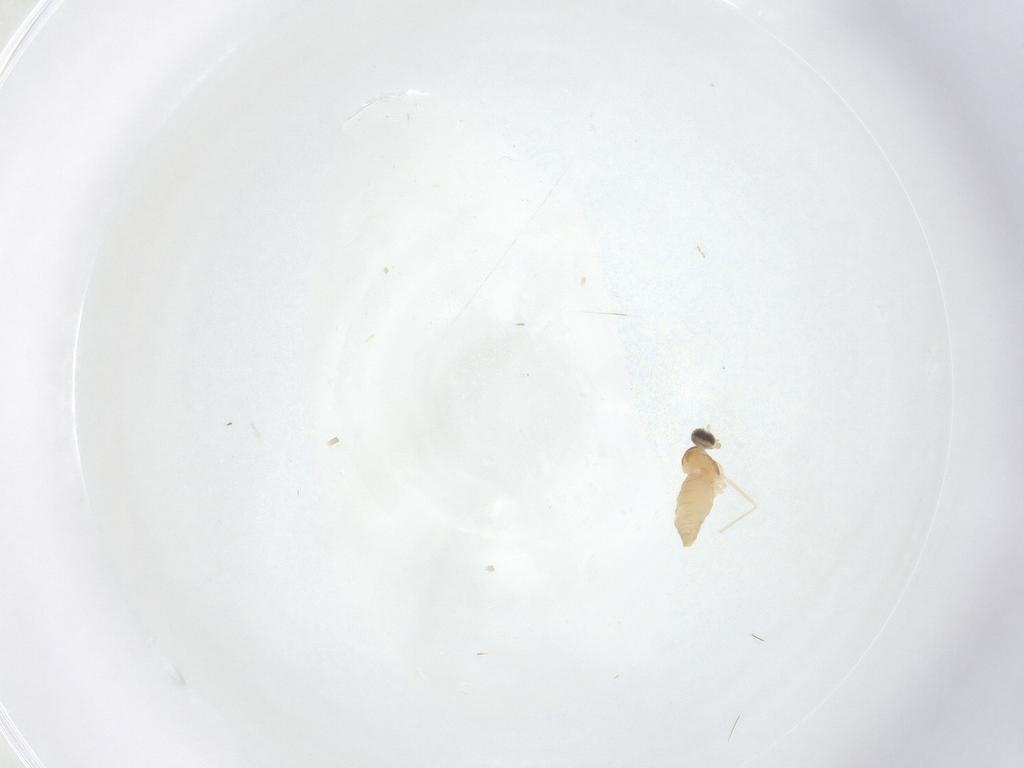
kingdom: Animalia
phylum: Arthropoda
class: Insecta
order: Diptera
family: Cecidomyiidae
